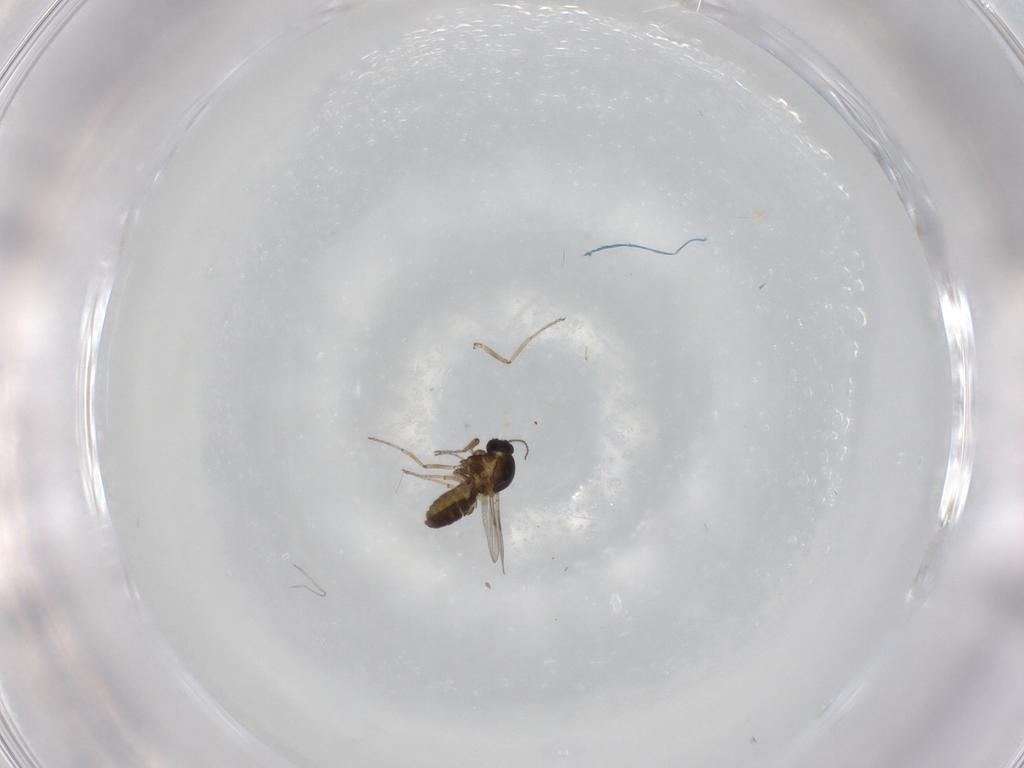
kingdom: Animalia
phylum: Arthropoda
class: Insecta
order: Diptera
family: Ceratopogonidae
